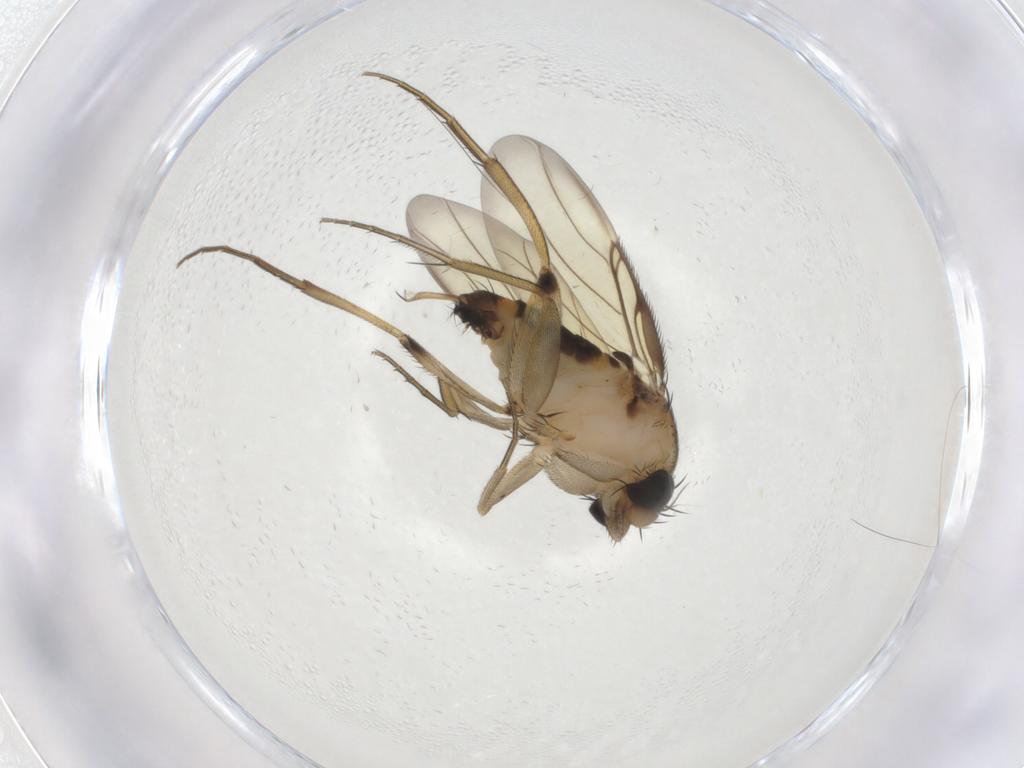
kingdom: Animalia
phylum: Arthropoda
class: Insecta
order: Diptera
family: Phoridae
